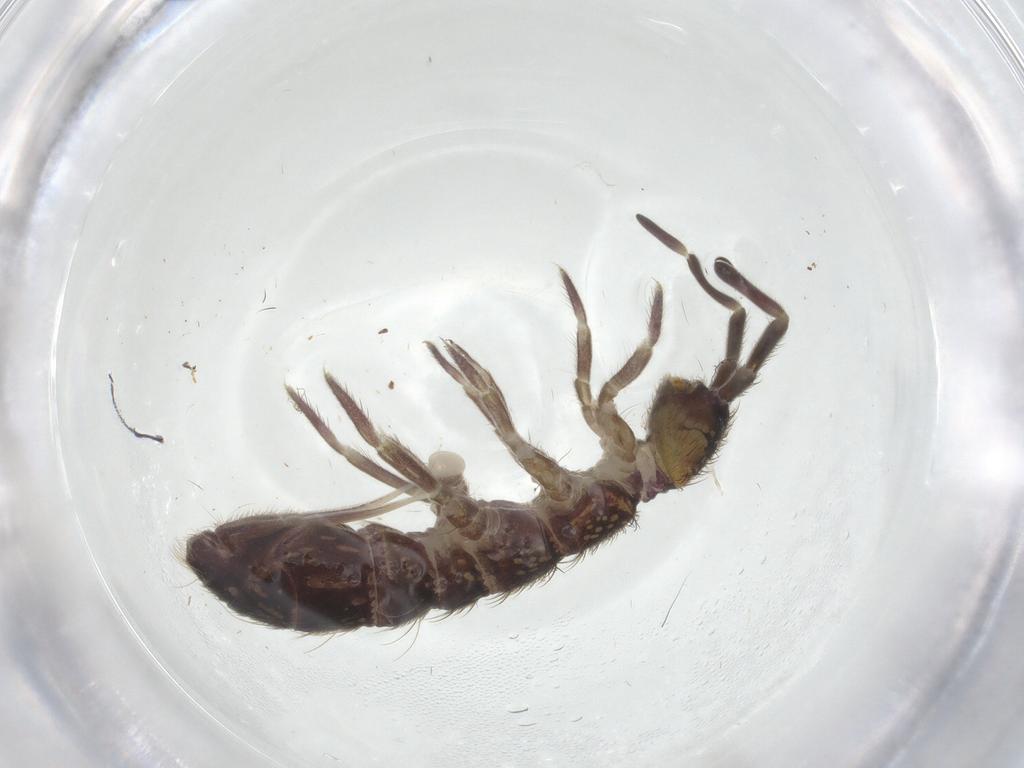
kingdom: Animalia
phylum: Arthropoda
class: Collembola
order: Entomobryomorpha
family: Isotomidae
